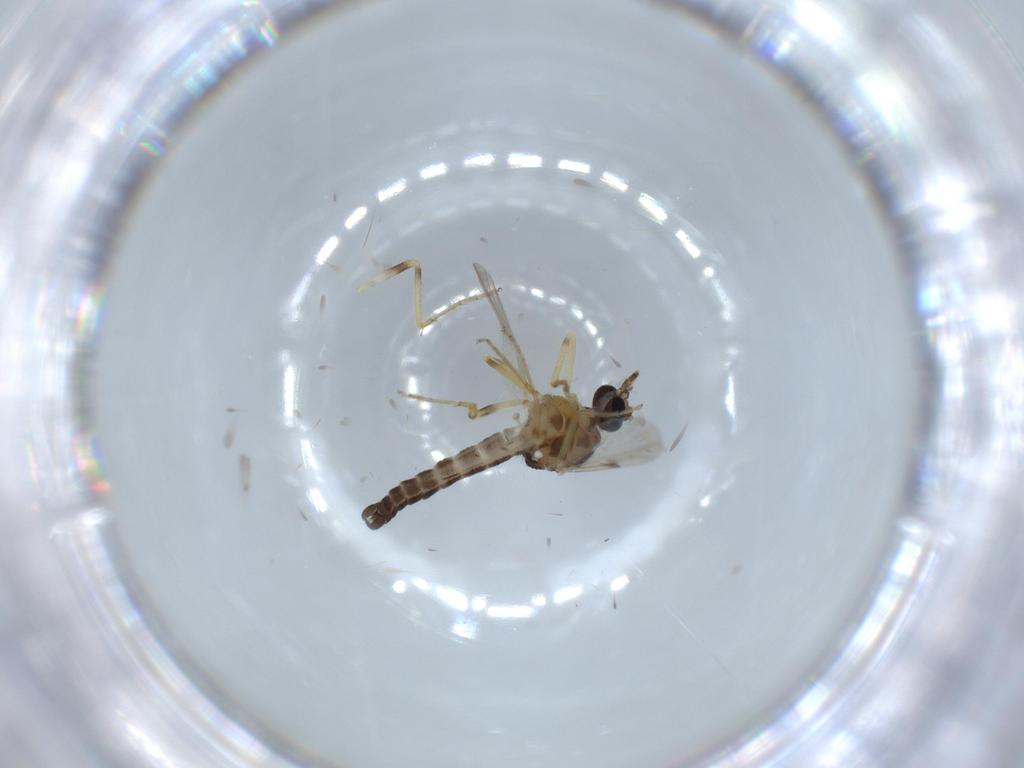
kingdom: Animalia
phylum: Arthropoda
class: Insecta
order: Diptera
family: Ceratopogonidae
